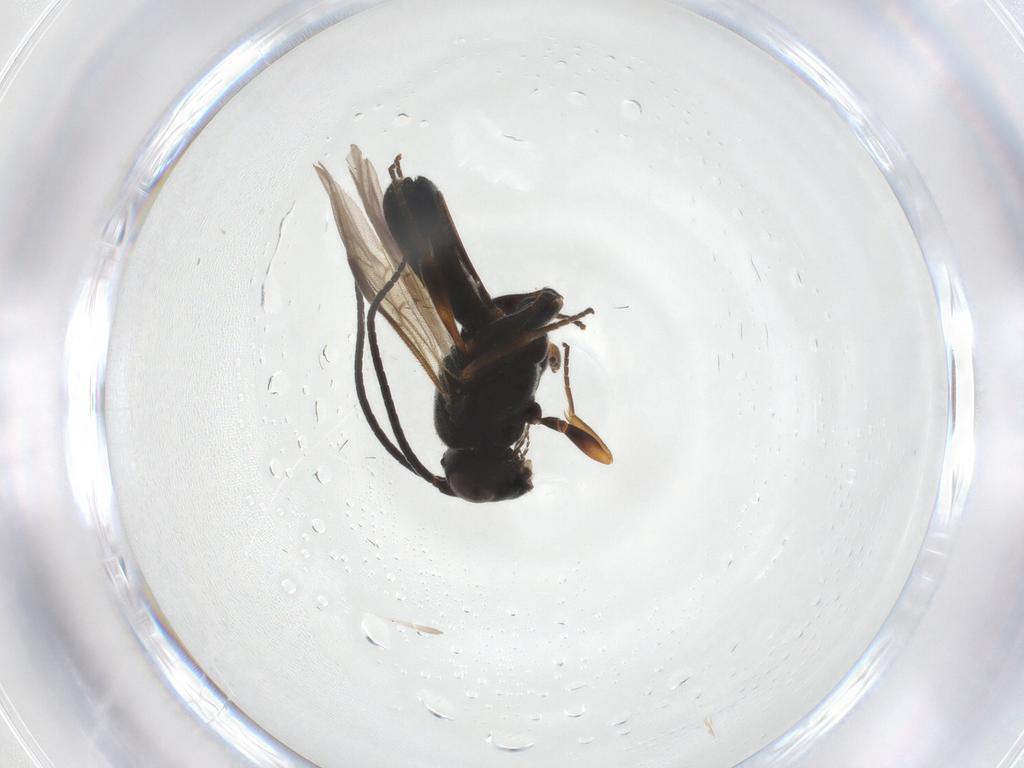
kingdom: Animalia
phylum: Arthropoda
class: Insecta
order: Hymenoptera
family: Braconidae
